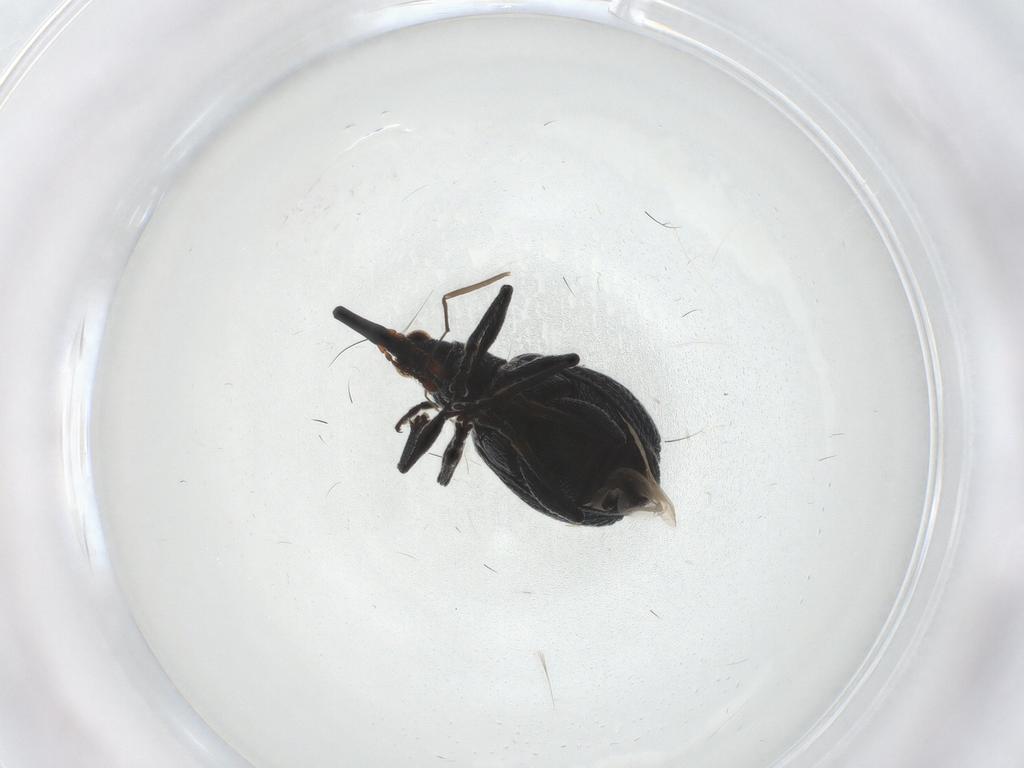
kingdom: Animalia
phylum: Arthropoda
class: Insecta
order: Coleoptera
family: Brentidae
